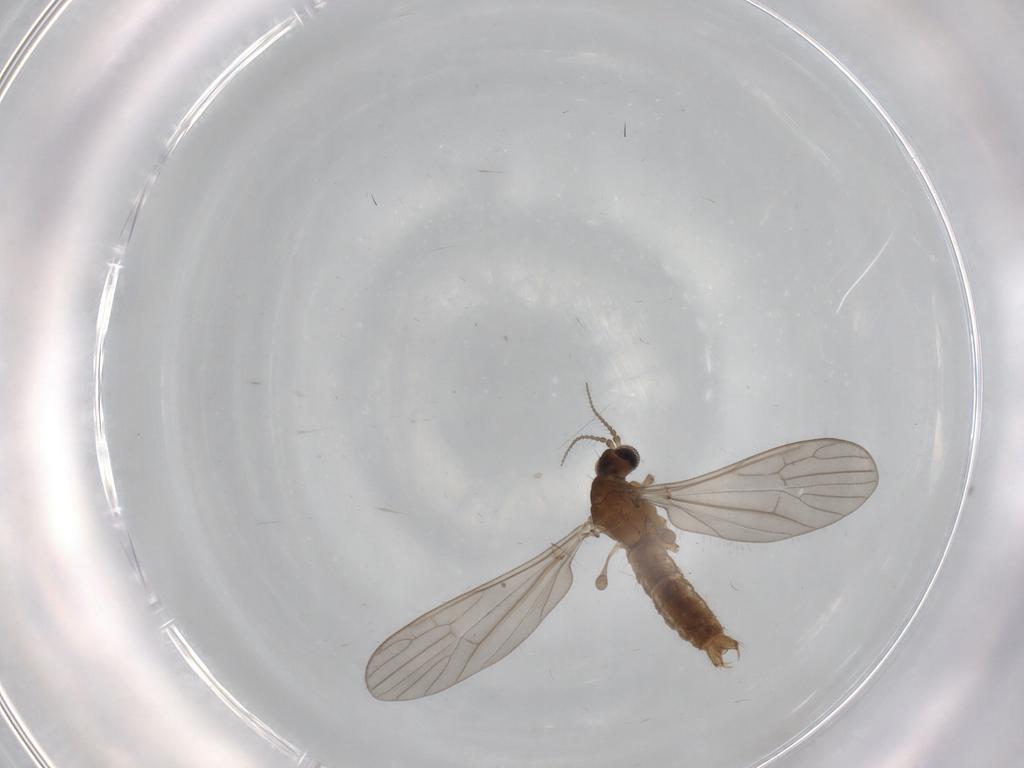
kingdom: Animalia
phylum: Arthropoda
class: Insecta
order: Diptera
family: Limoniidae
